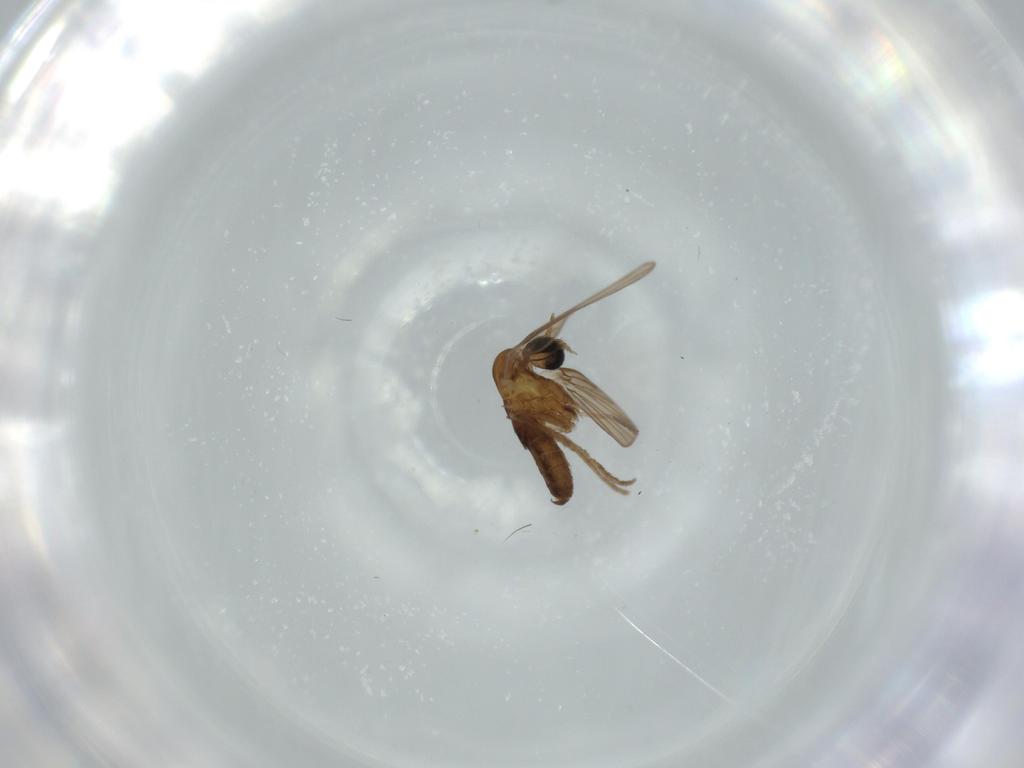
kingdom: Animalia
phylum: Arthropoda
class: Insecta
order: Diptera
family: Cecidomyiidae
